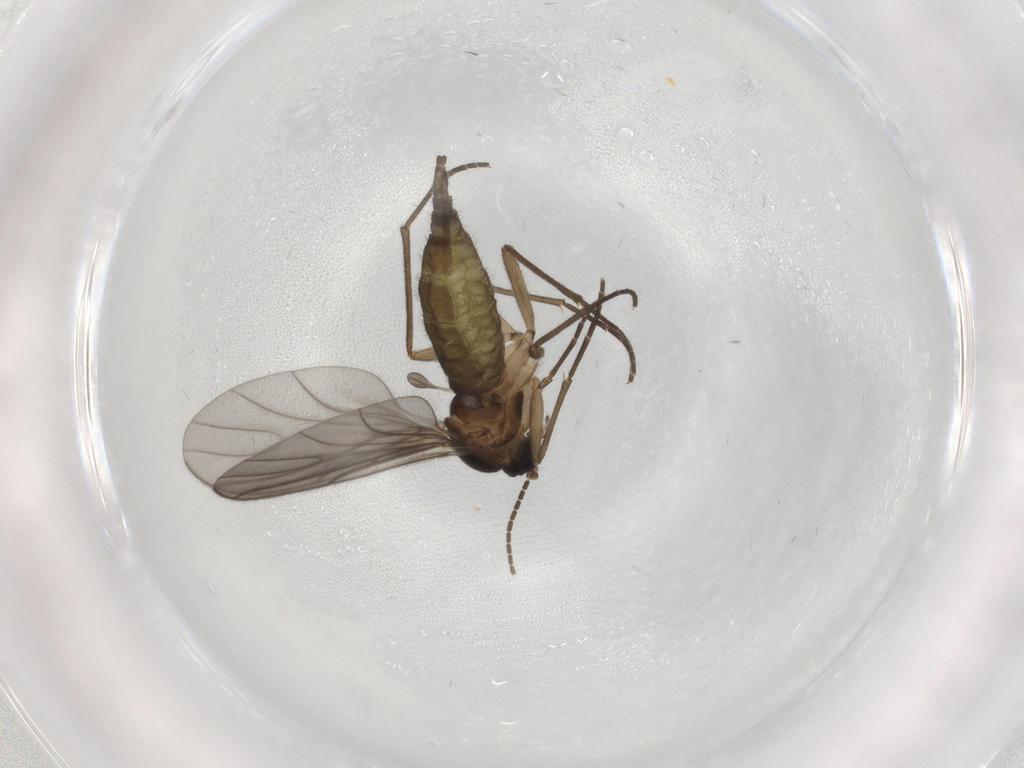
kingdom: Animalia
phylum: Arthropoda
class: Insecta
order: Diptera
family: Sciaridae
